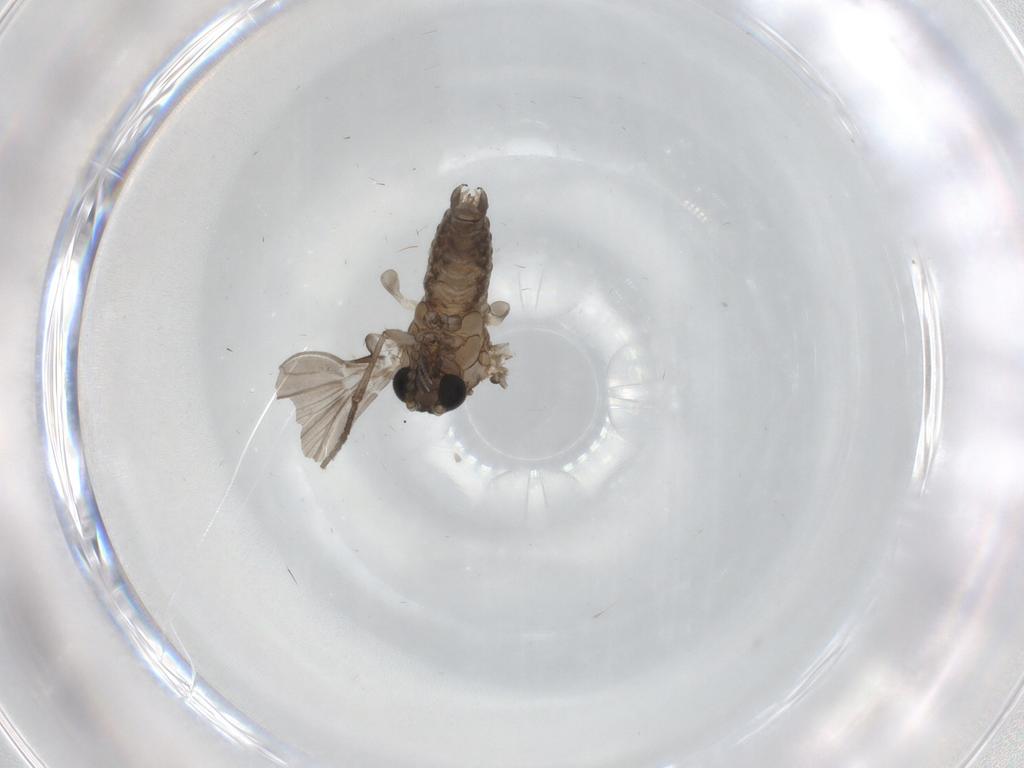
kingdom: Animalia
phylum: Arthropoda
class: Insecta
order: Diptera
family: Psychodidae
